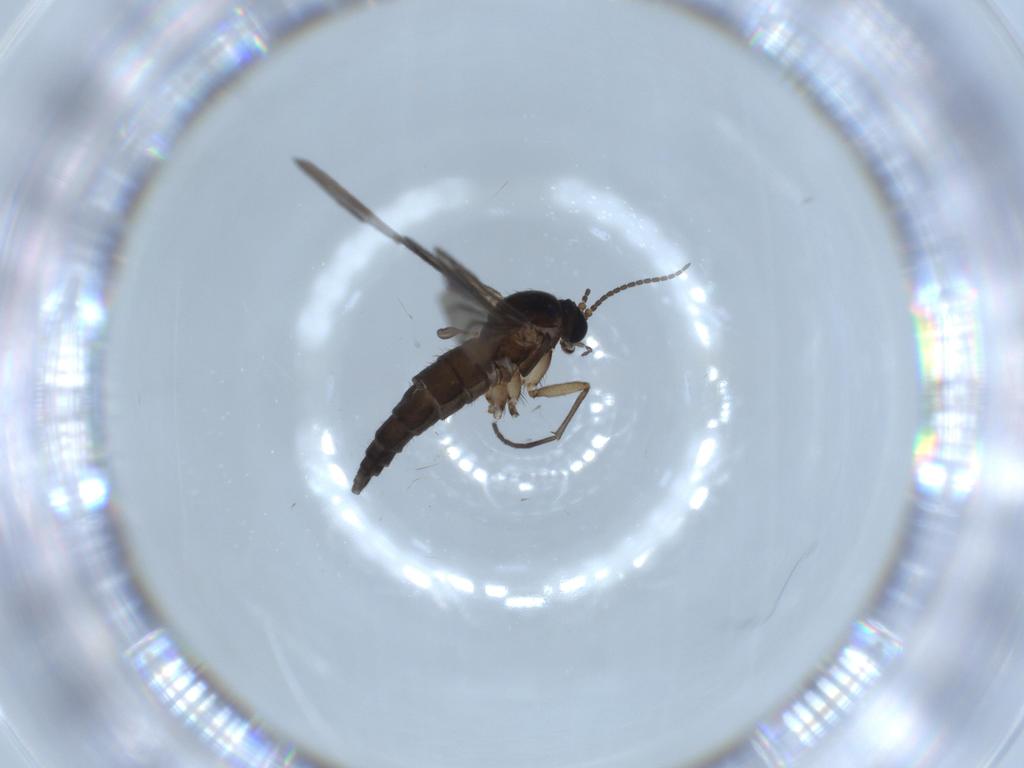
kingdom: Animalia
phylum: Arthropoda
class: Insecta
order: Diptera
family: Sciaridae
